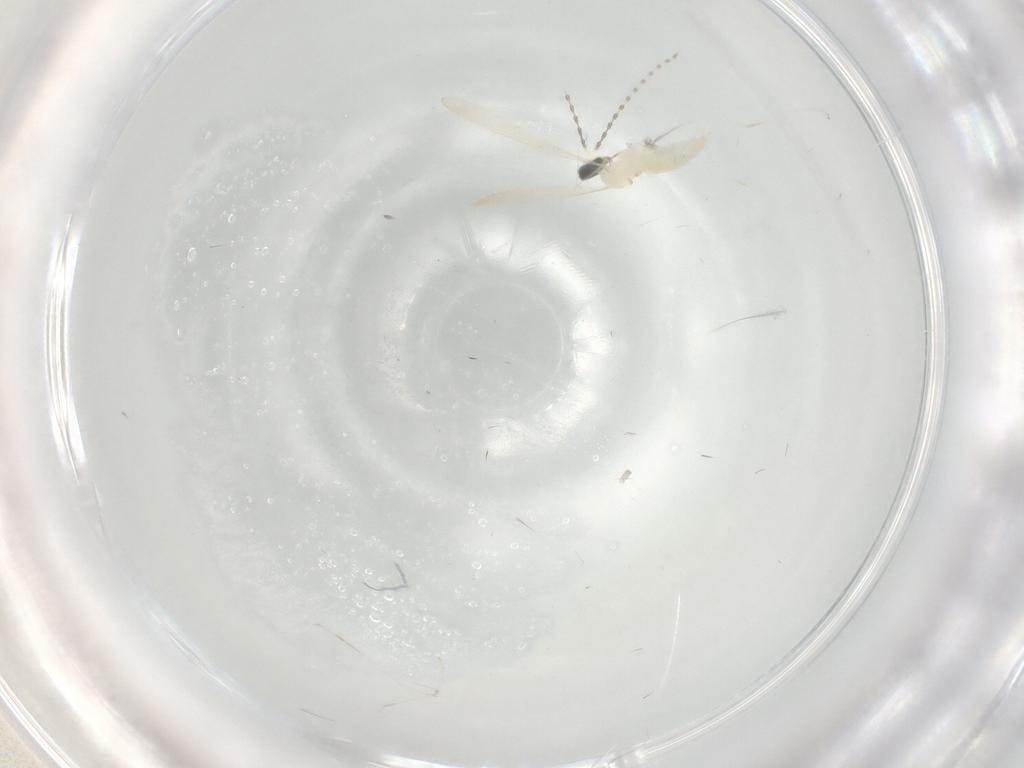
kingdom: Animalia
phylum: Arthropoda
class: Insecta
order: Diptera
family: Cecidomyiidae
